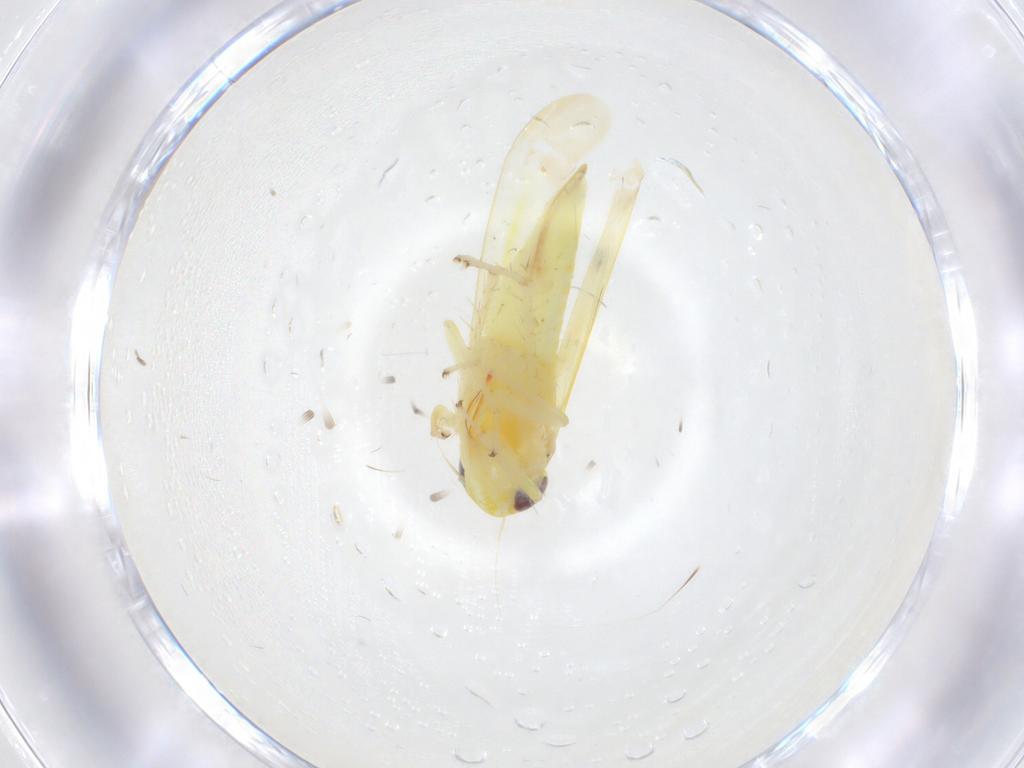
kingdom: Animalia
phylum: Arthropoda
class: Insecta
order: Hemiptera
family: Cicadellidae
